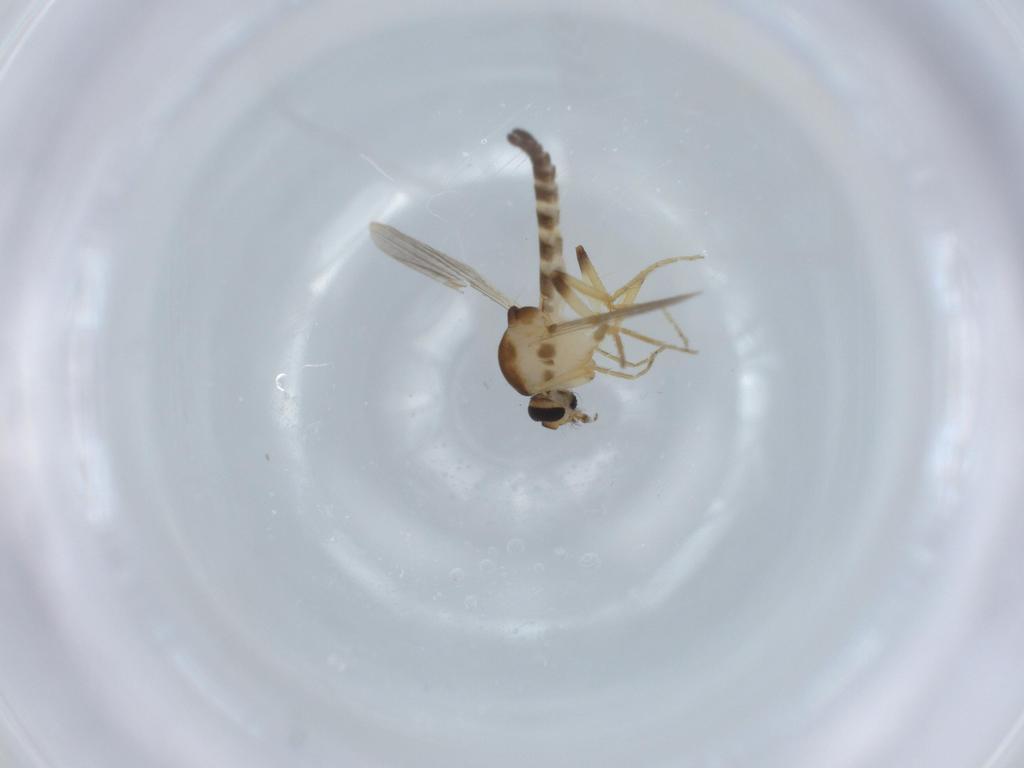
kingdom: Animalia
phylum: Arthropoda
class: Insecta
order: Diptera
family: Ceratopogonidae
